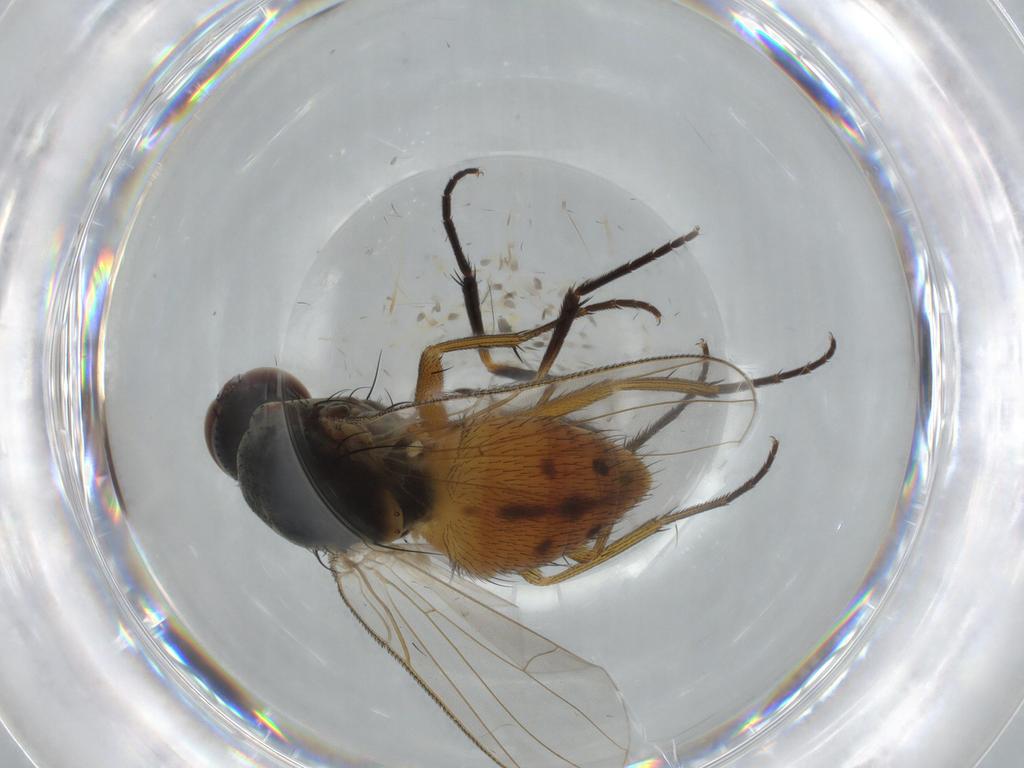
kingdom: Animalia
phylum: Arthropoda
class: Insecta
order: Diptera
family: Muscidae
